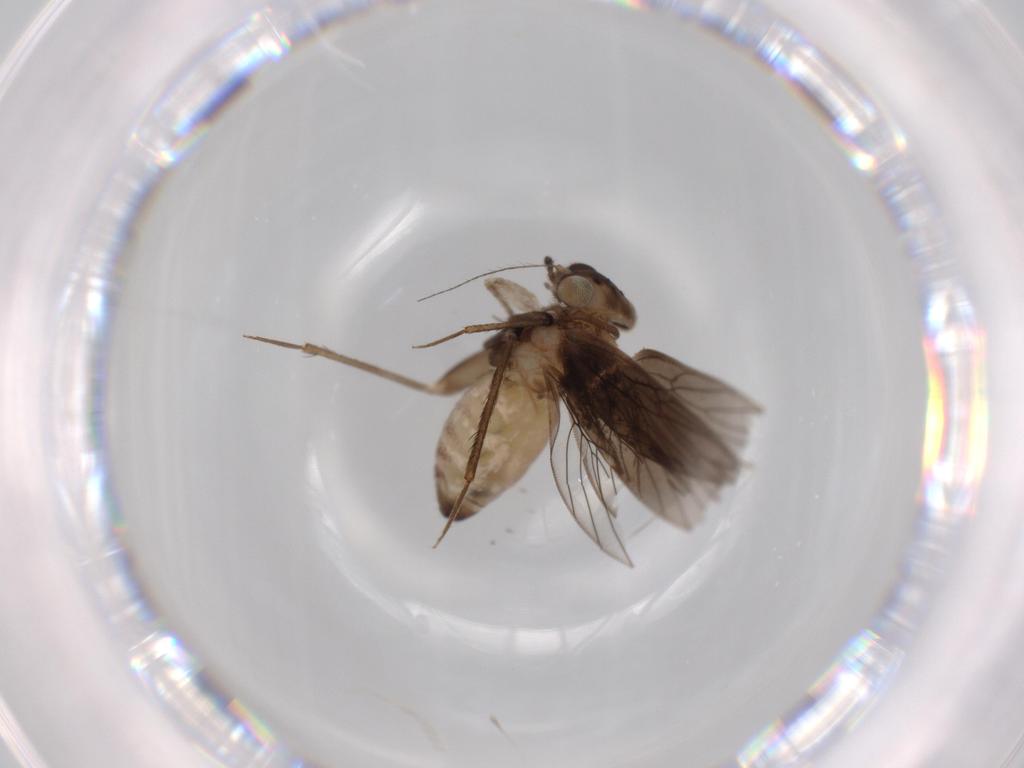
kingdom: Animalia
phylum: Arthropoda
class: Insecta
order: Psocodea
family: Lepidopsocidae
